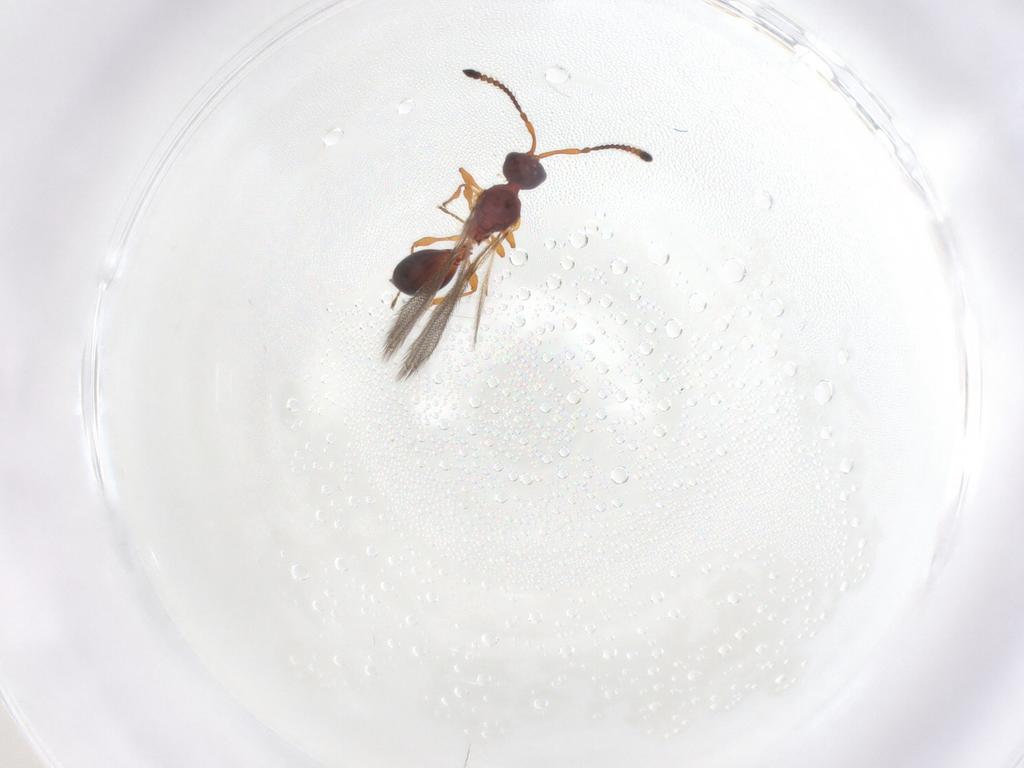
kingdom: Animalia
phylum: Arthropoda
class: Insecta
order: Hymenoptera
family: Diapriidae
